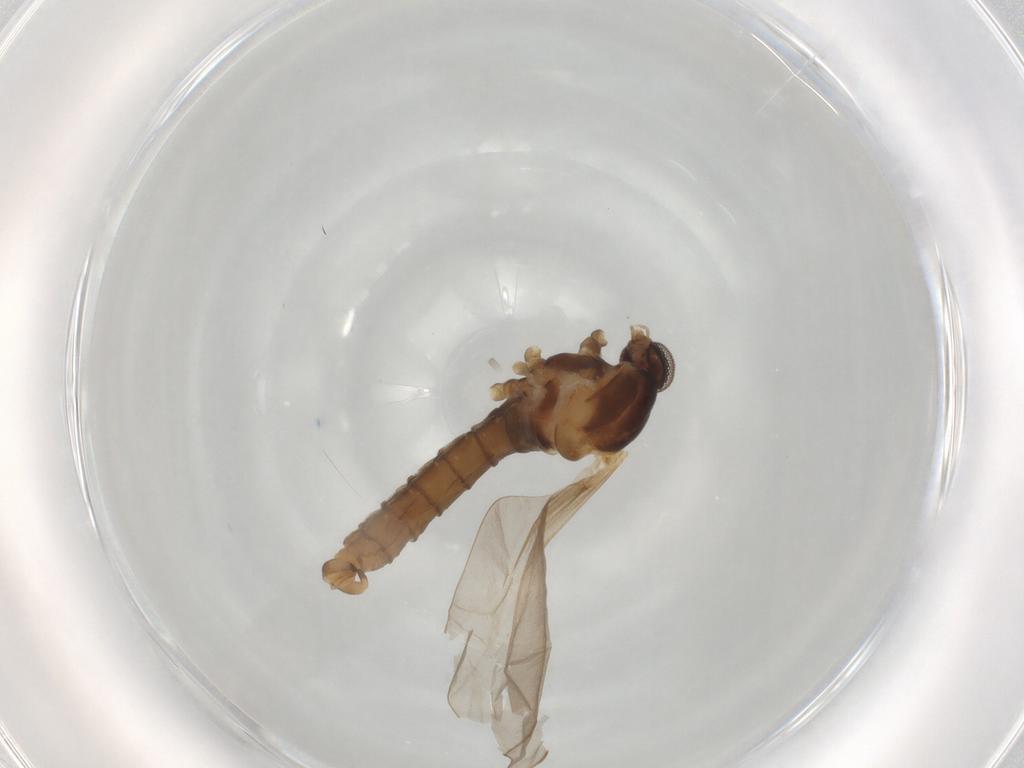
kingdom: Animalia
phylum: Arthropoda
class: Insecta
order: Diptera
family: Cecidomyiidae
